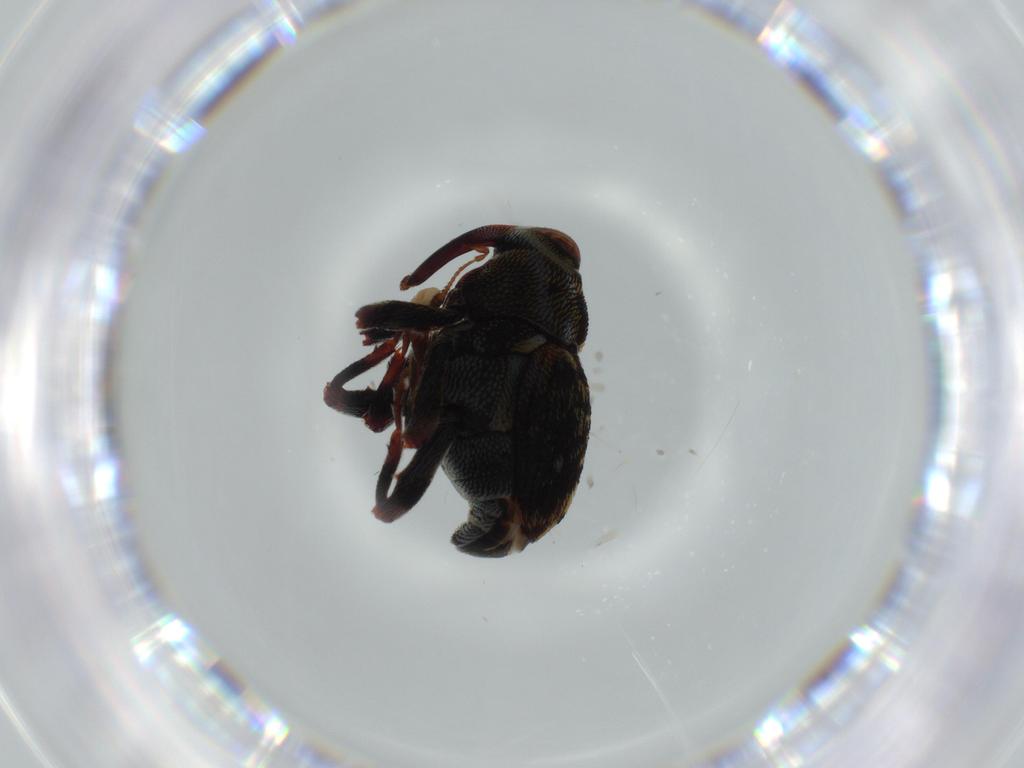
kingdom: Animalia
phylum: Arthropoda
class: Insecta
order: Coleoptera
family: Curculionidae
